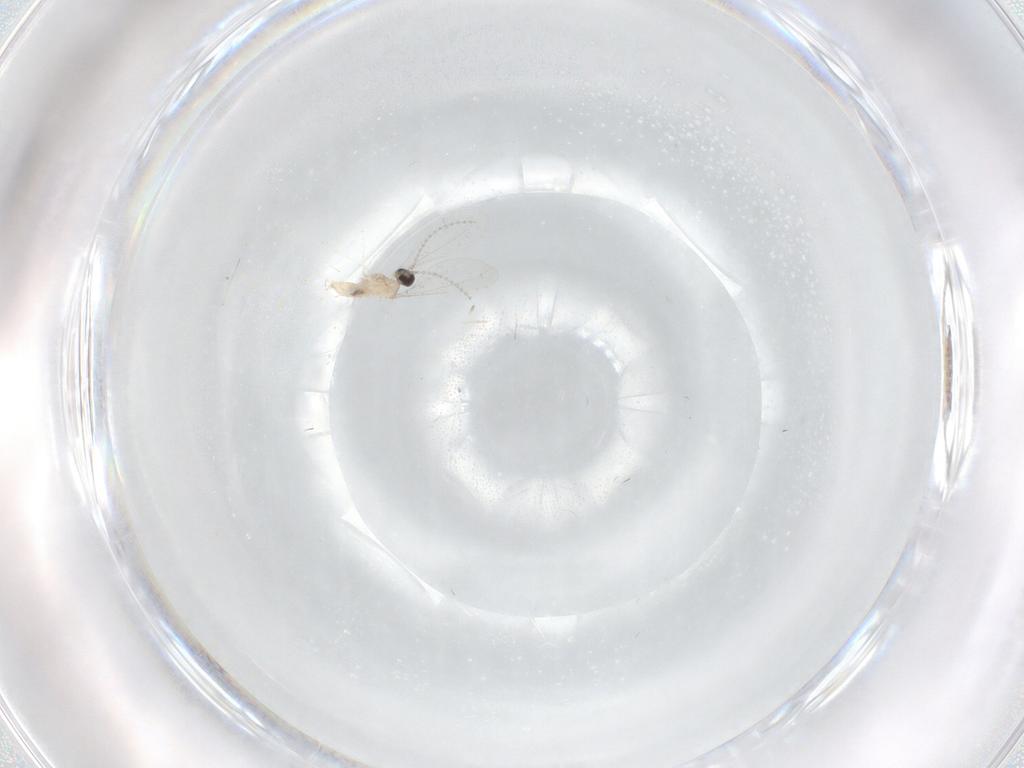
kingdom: Animalia
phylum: Arthropoda
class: Insecta
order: Diptera
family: Cecidomyiidae
